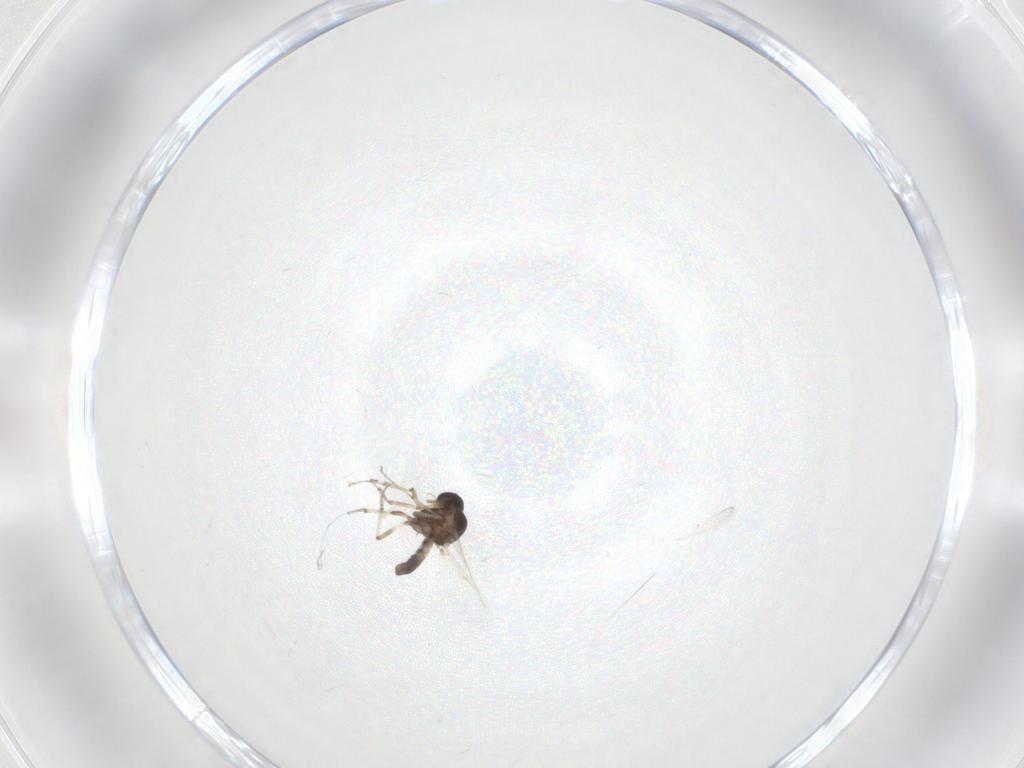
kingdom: Animalia
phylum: Arthropoda
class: Insecta
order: Diptera
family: Ceratopogonidae
